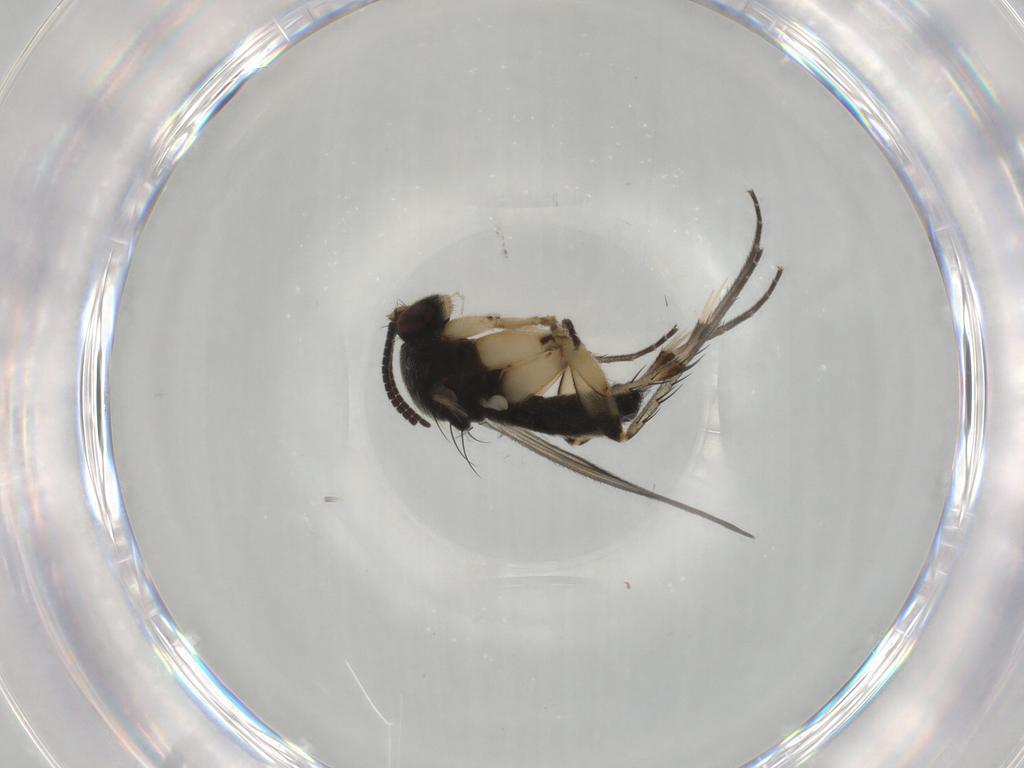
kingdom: Animalia
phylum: Arthropoda
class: Insecta
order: Diptera
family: Mycetophilidae
